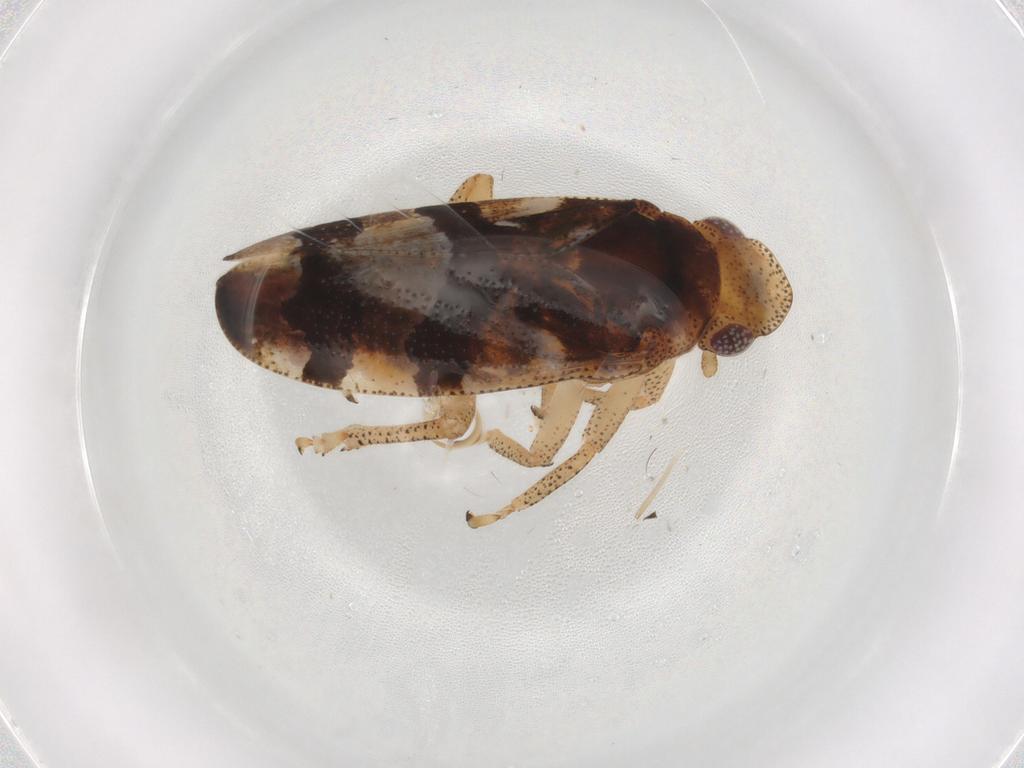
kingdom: Animalia
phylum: Arthropoda
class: Insecta
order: Hemiptera
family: Tettigometridae
